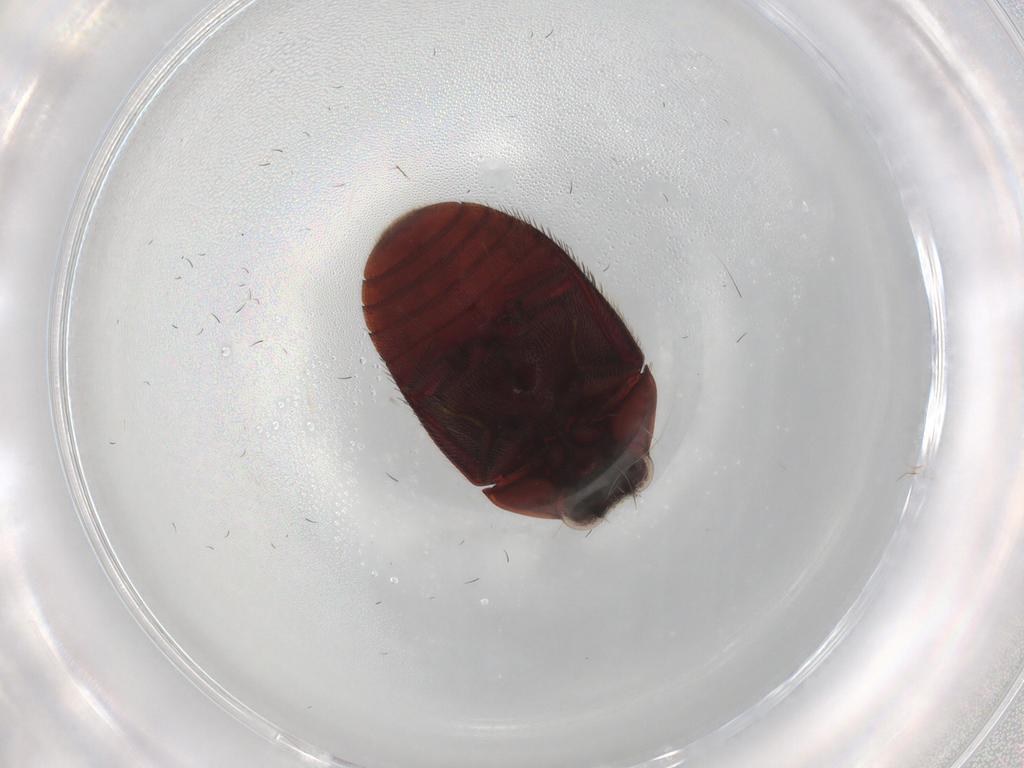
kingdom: Animalia
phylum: Arthropoda
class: Insecta
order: Coleoptera
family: Dermestidae
